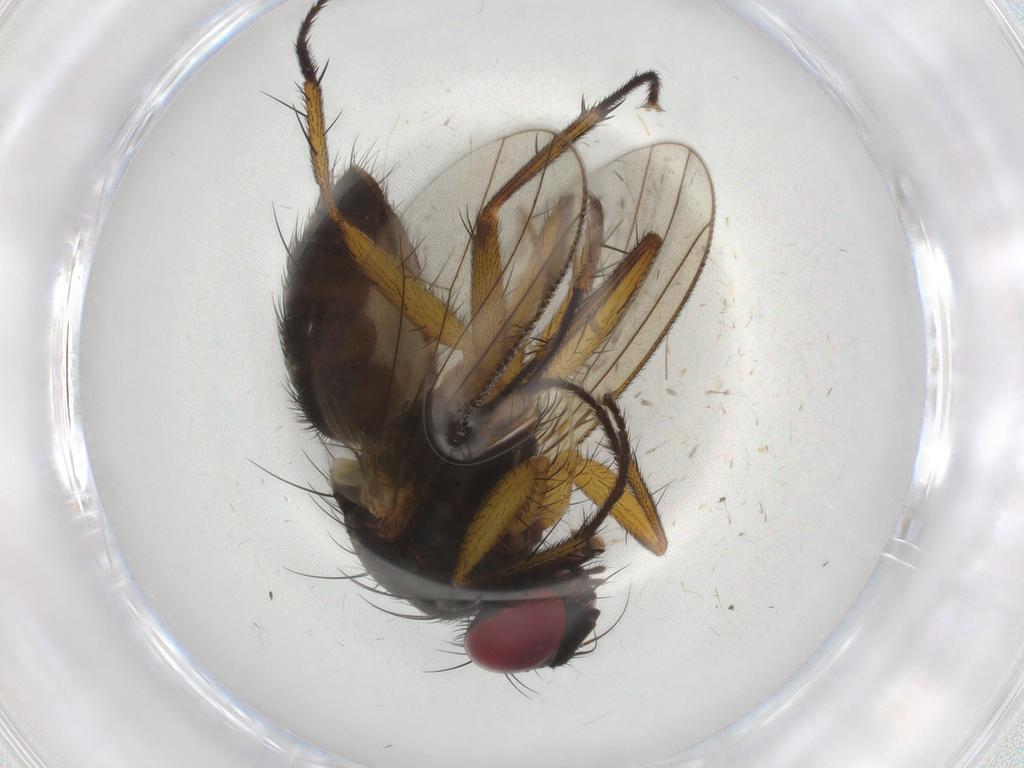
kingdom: Animalia
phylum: Arthropoda
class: Insecta
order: Diptera
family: Muscidae
